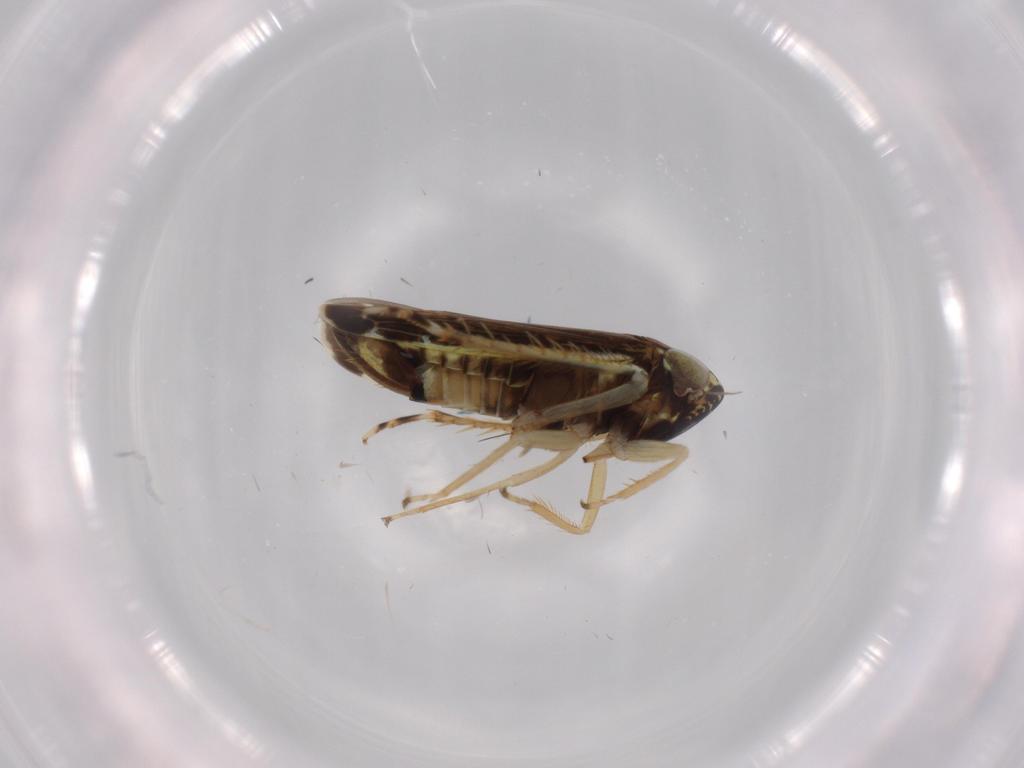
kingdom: Animalia
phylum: Arthropoda
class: Insecta
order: Hemiptera
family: Cicadellidae
